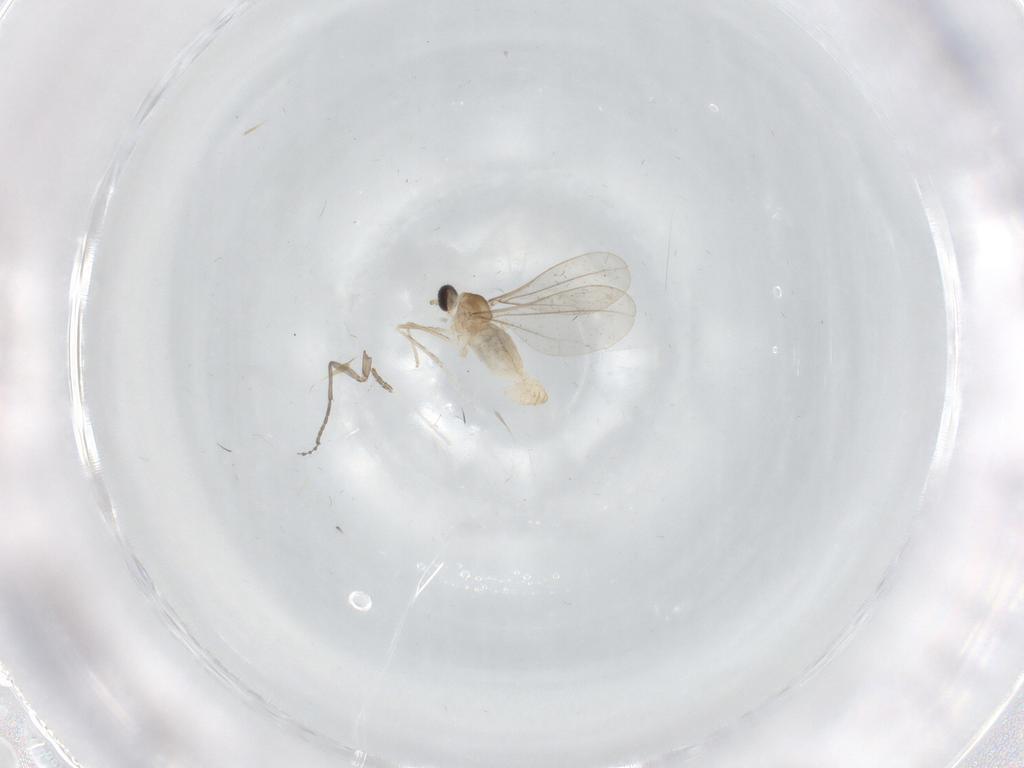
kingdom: Animalia
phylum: Arthropoda
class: Insecta
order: Diptera
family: Cecidomyiidae
